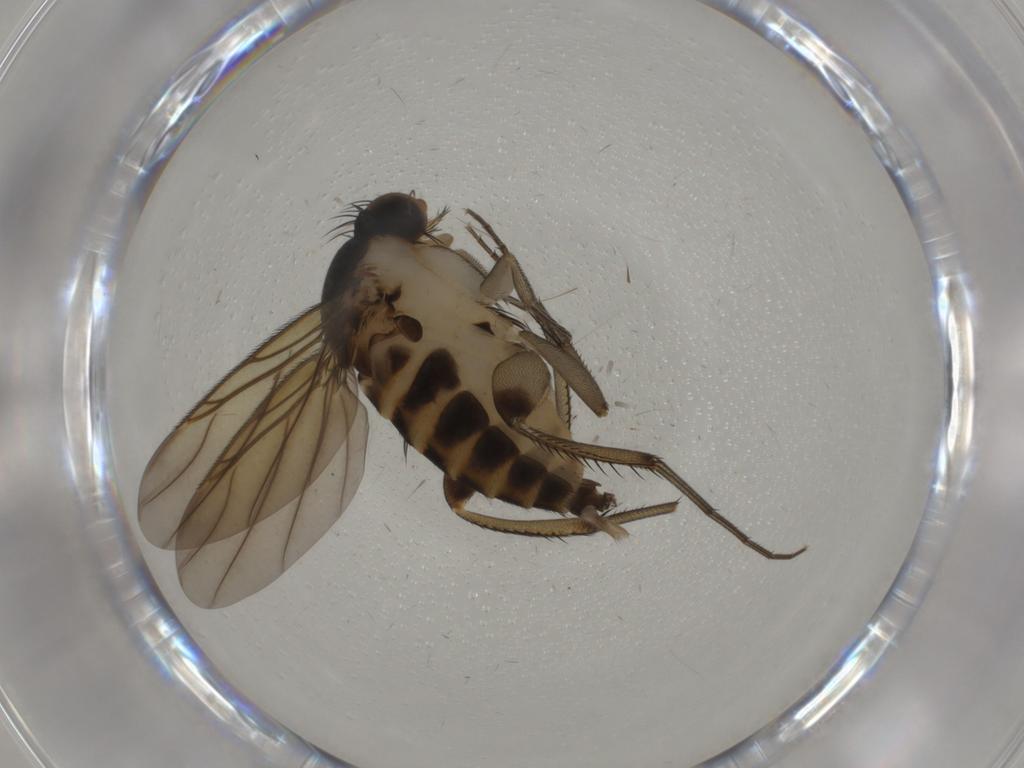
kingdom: Animalia
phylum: Arthropoda
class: Insecta
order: Diptera
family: Phoridae
